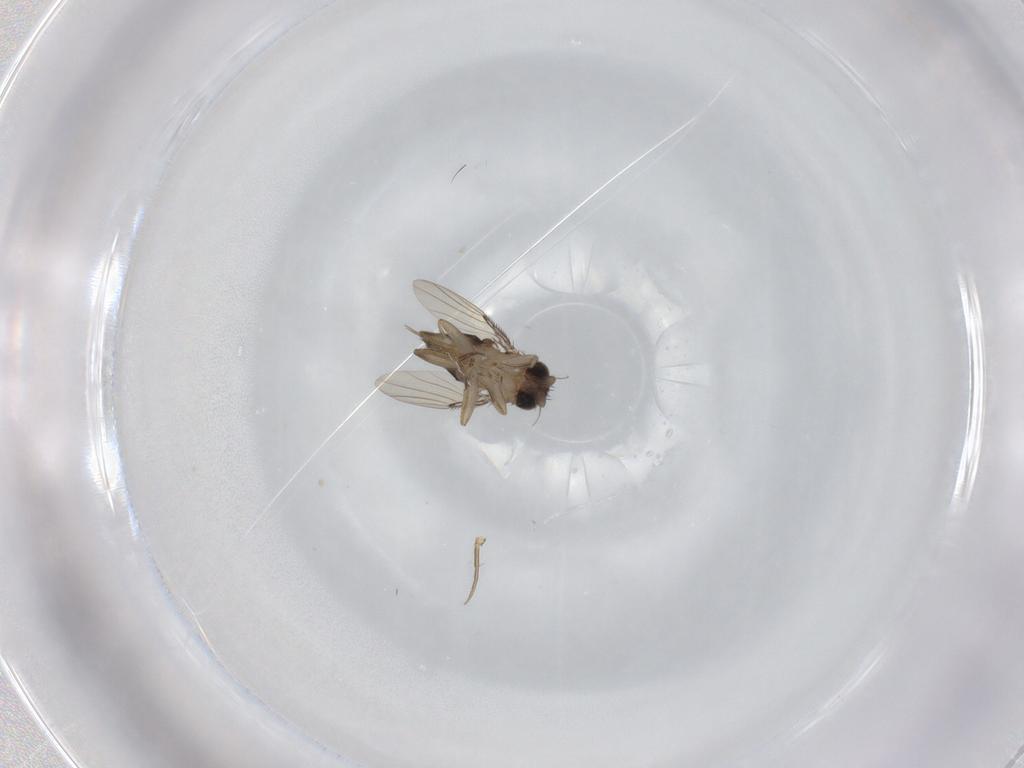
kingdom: Animalia
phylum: Arthropoda
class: Insecta
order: Diptera
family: Chironomidae
